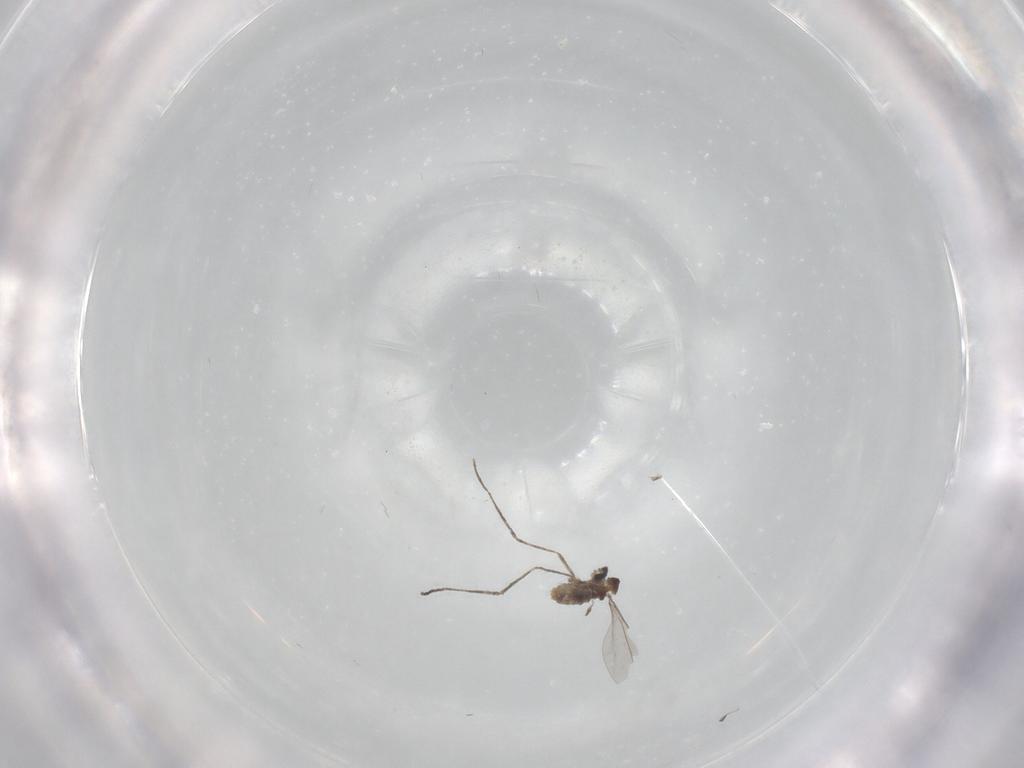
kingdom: Animalia
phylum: Arthropoda
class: Insecta
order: Diptera
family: Cecidomyiidae
